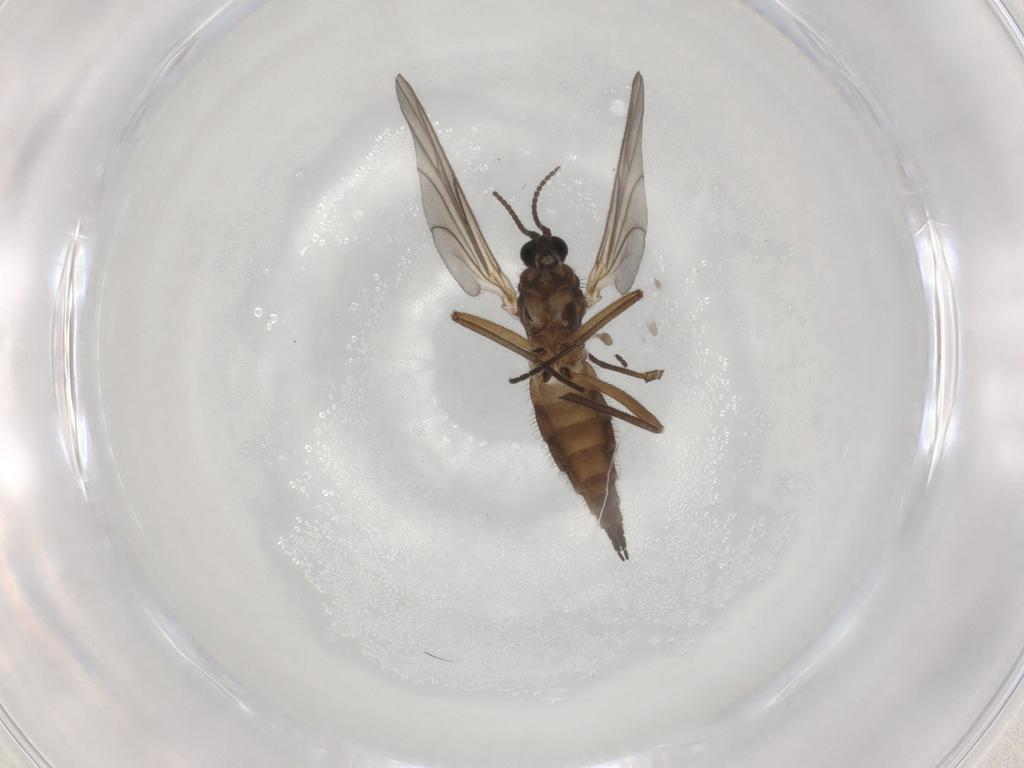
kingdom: Animalia
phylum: Arthropoda
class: Insecta
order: Diptera
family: Sciaridae
